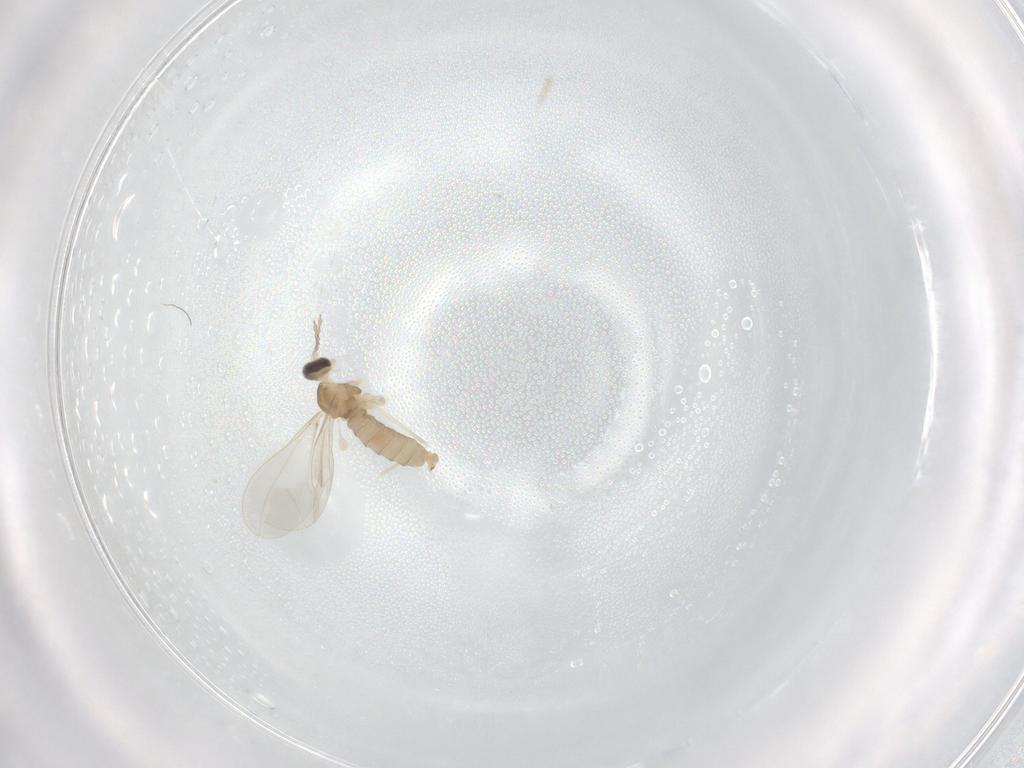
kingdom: Animalia
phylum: Arthropoda
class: Insecta
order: Diptera
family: Cecidomyiidae
